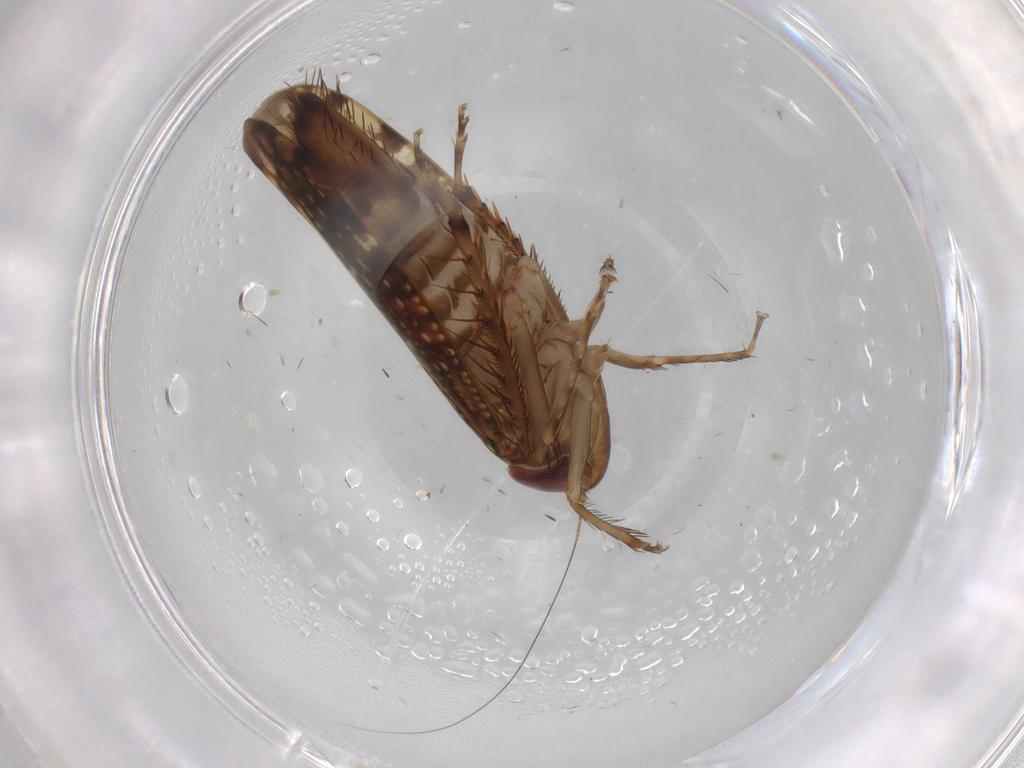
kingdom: Animalia
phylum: Arthropoda
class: Insecta
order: Hemiptera
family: Cicadellidae
